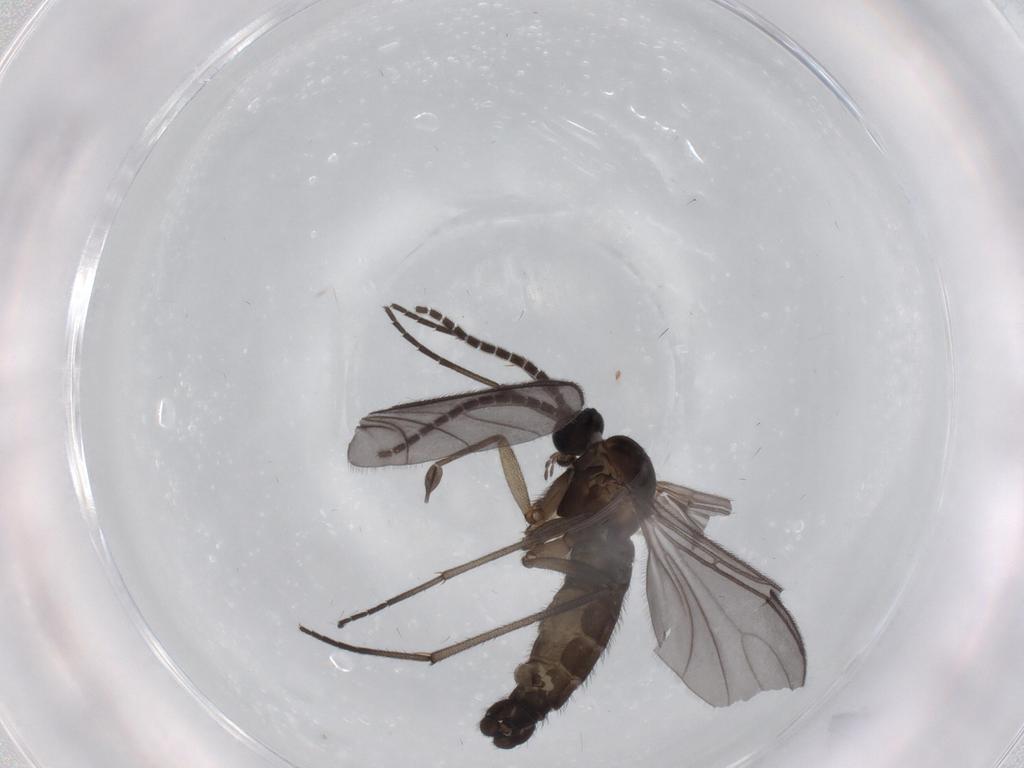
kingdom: Animalia
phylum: Arthropoda
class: Insecta
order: Diptera
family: Sciaridae
